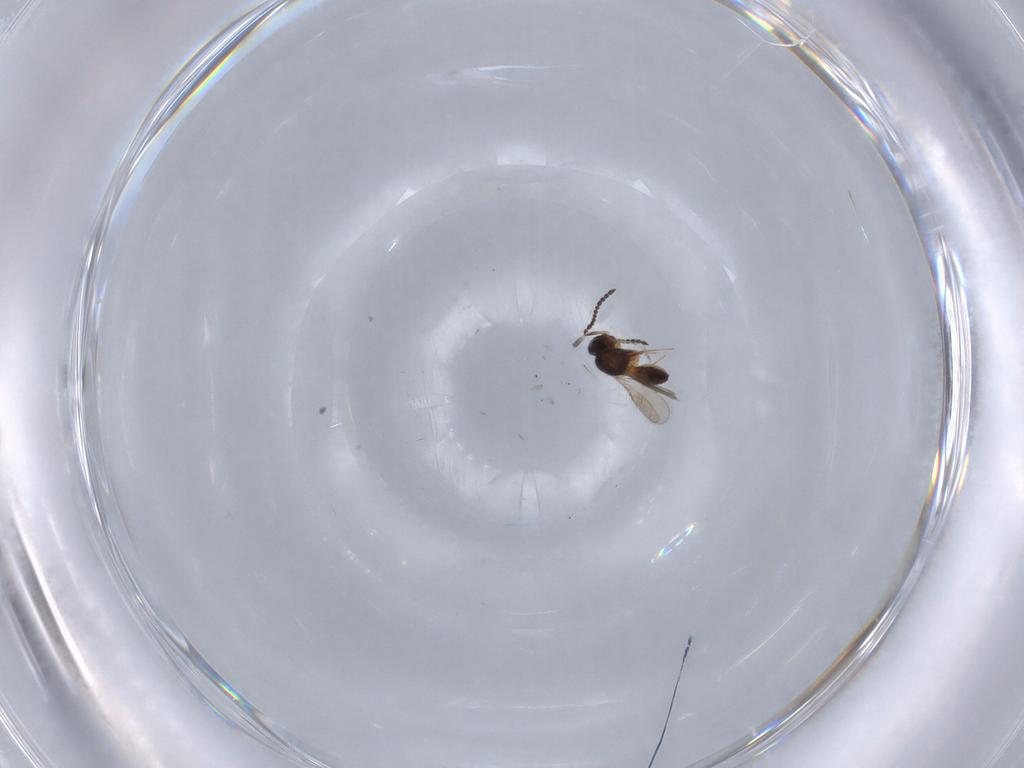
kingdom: Animalia
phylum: Arthropoda
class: Insecta
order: Hymenoptera
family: Scelionidae
